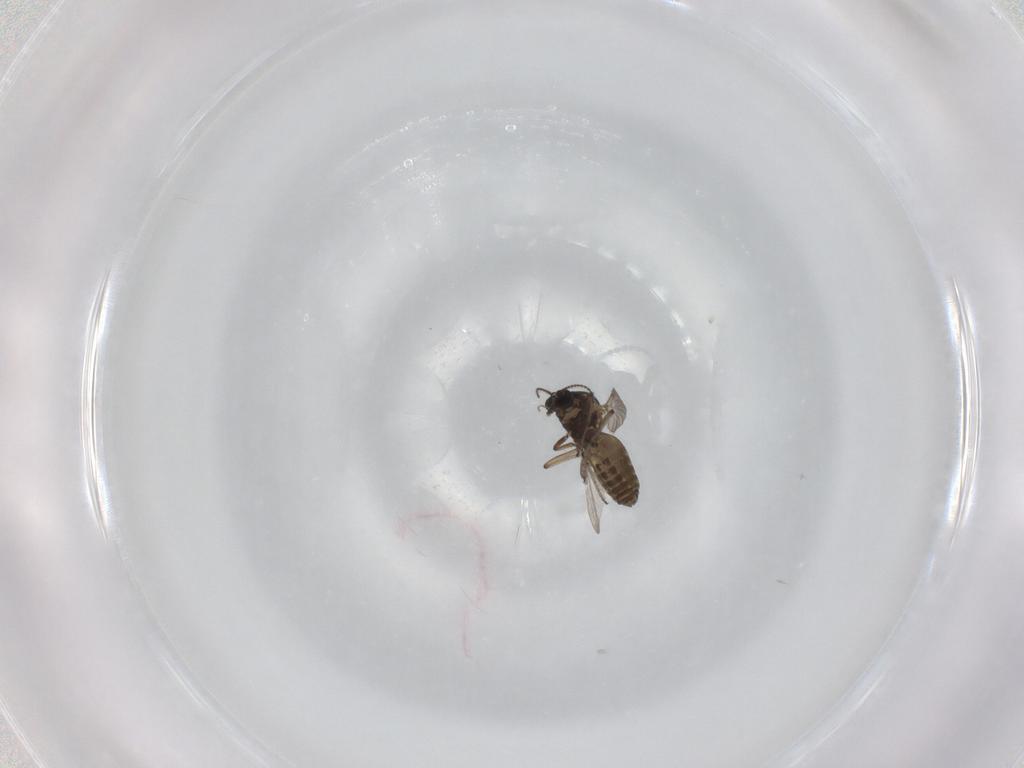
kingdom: Animalia
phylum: Arthropoda
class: Insecta
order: Diptera
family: Ceratopogonidae
